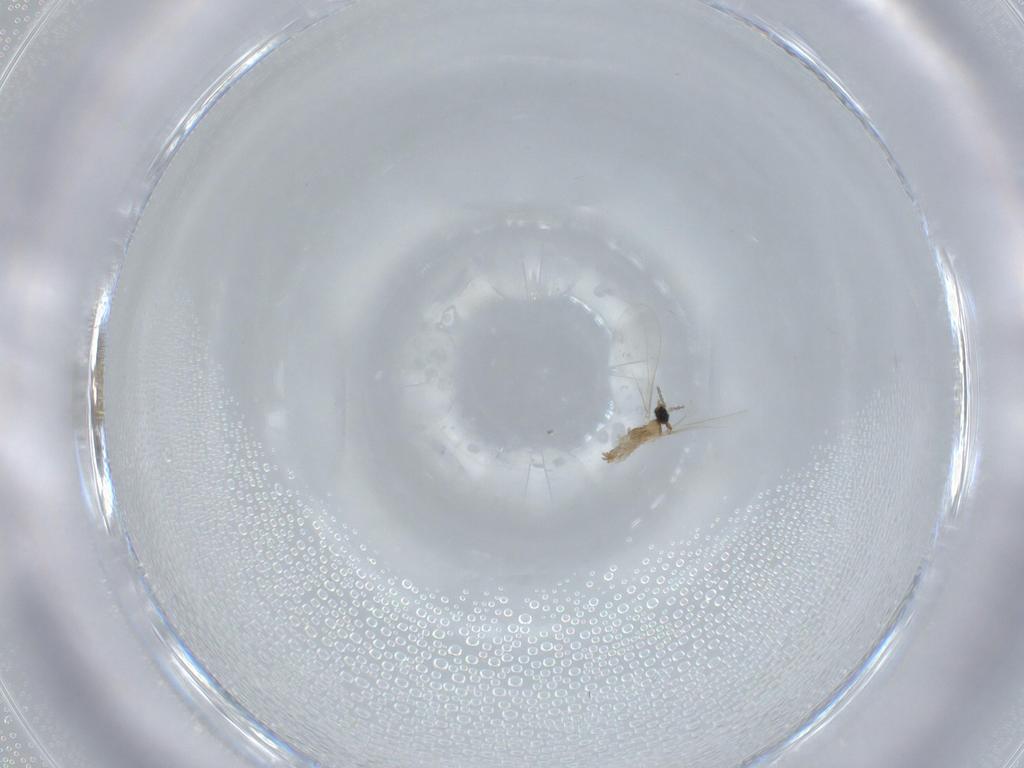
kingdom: Animalia
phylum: Arthropoda
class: Insecta
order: Diptera
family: Cecidomyiidae
